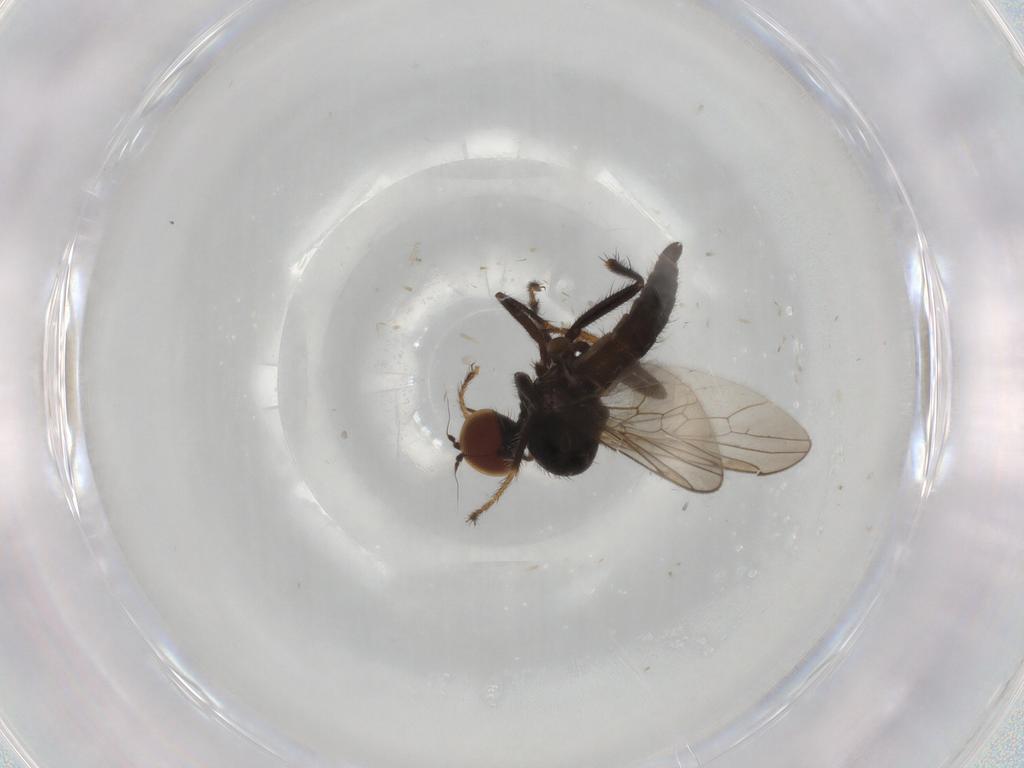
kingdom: Animalia
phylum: Arthropoda
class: Insecta
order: Diptera
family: Hybotidae
